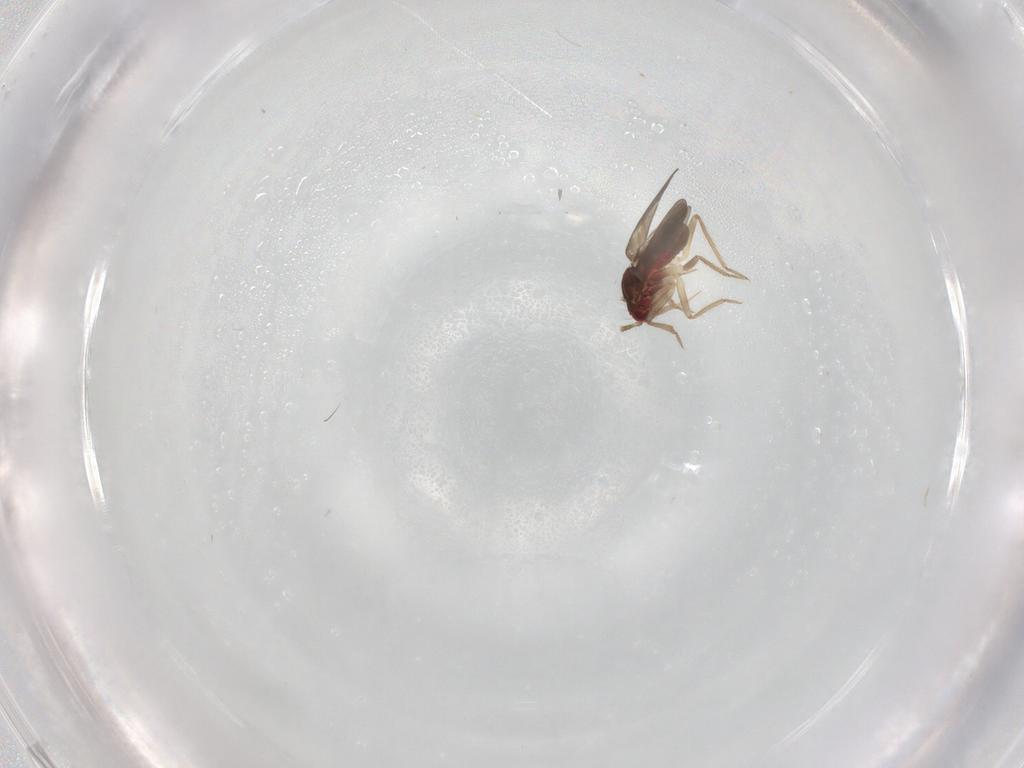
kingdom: Animalia
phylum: Arthropoda
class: Insecta
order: Hemiptera
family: Ceratocombidae
